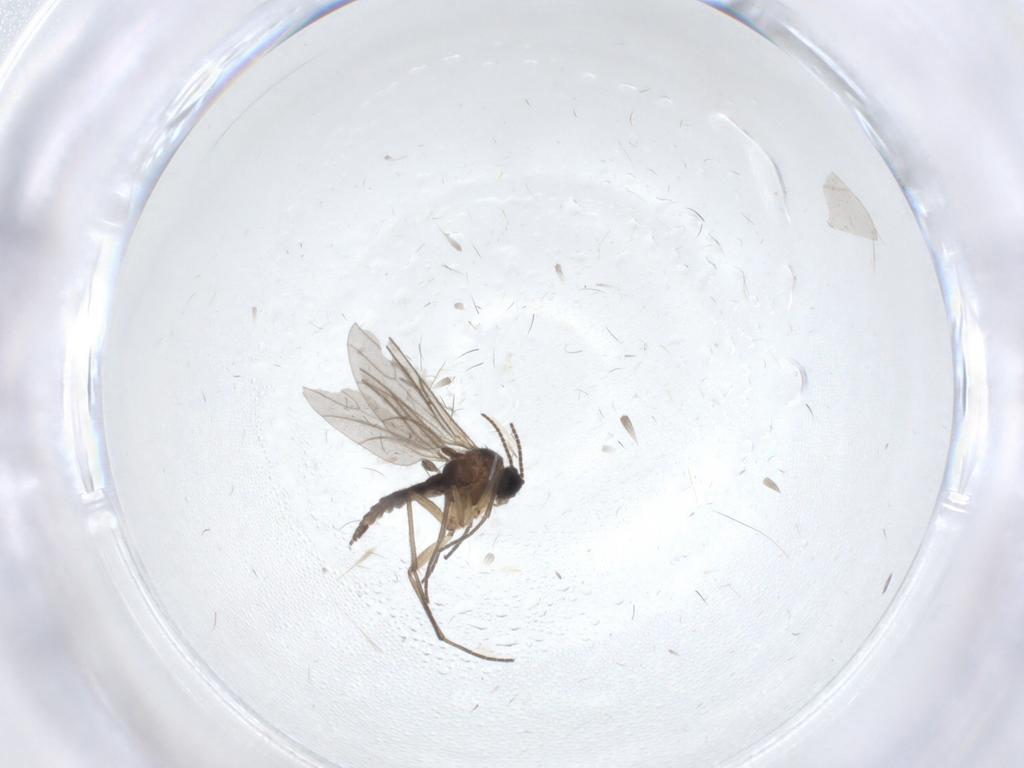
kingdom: Animalia
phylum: Arthropoda
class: Insecta
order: Diptera
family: Sciaridae
